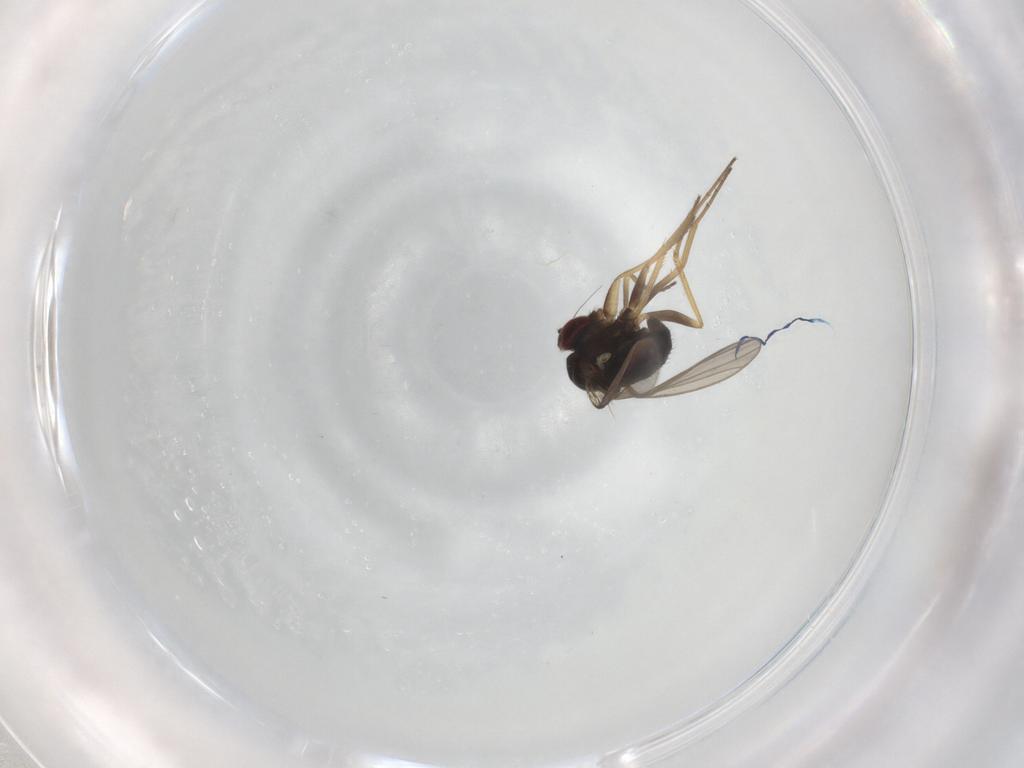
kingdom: Animalia
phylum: Arthropoda
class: Insecta
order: Diptera
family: Dolichopodidae
